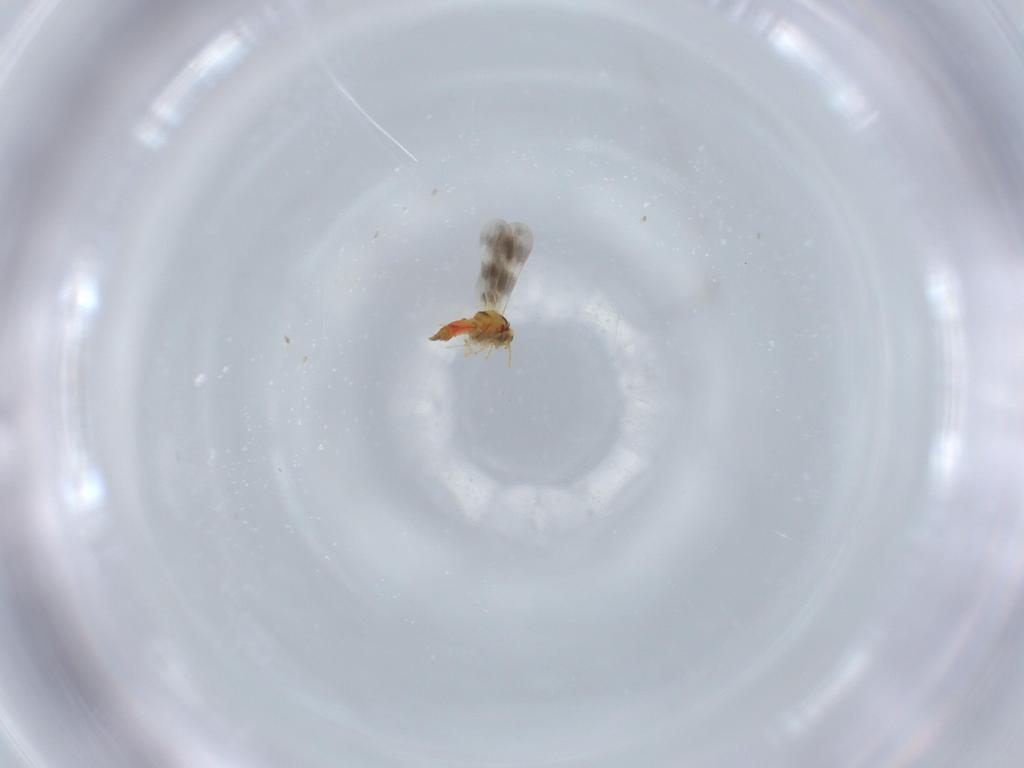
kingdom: Animalia
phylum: Arthropoda
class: Insecta
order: Hemiptera
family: Aleyrodidae
